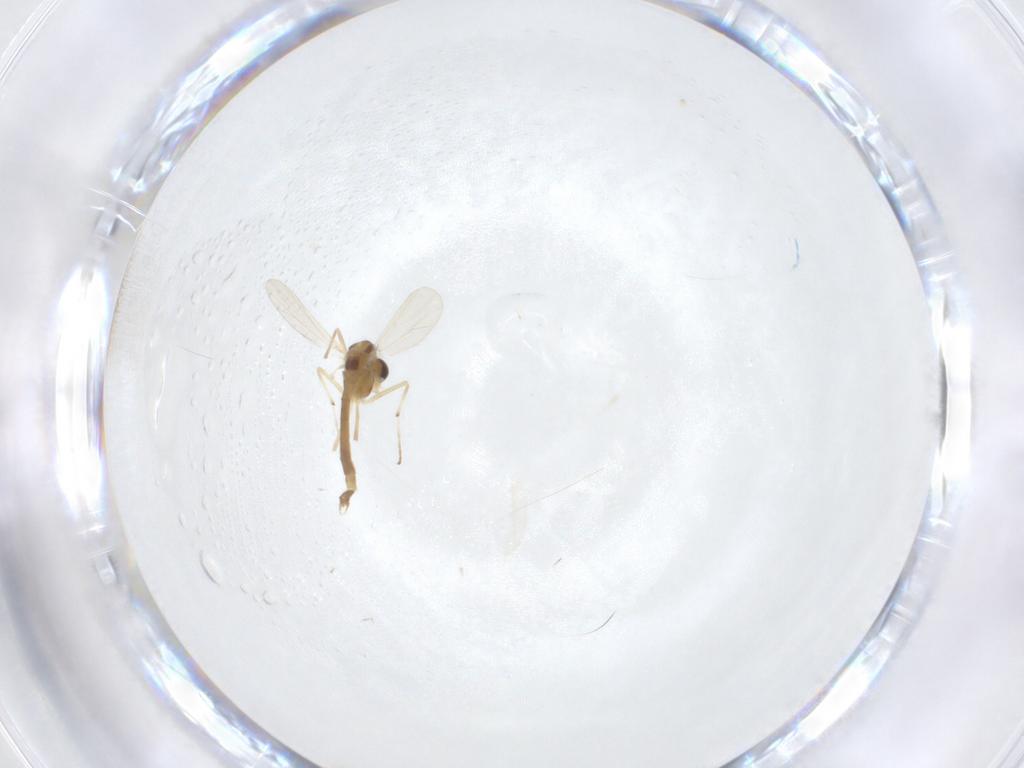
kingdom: Animalia
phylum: Arthropoda
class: Insecta
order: Diptera
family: Chironomidae
